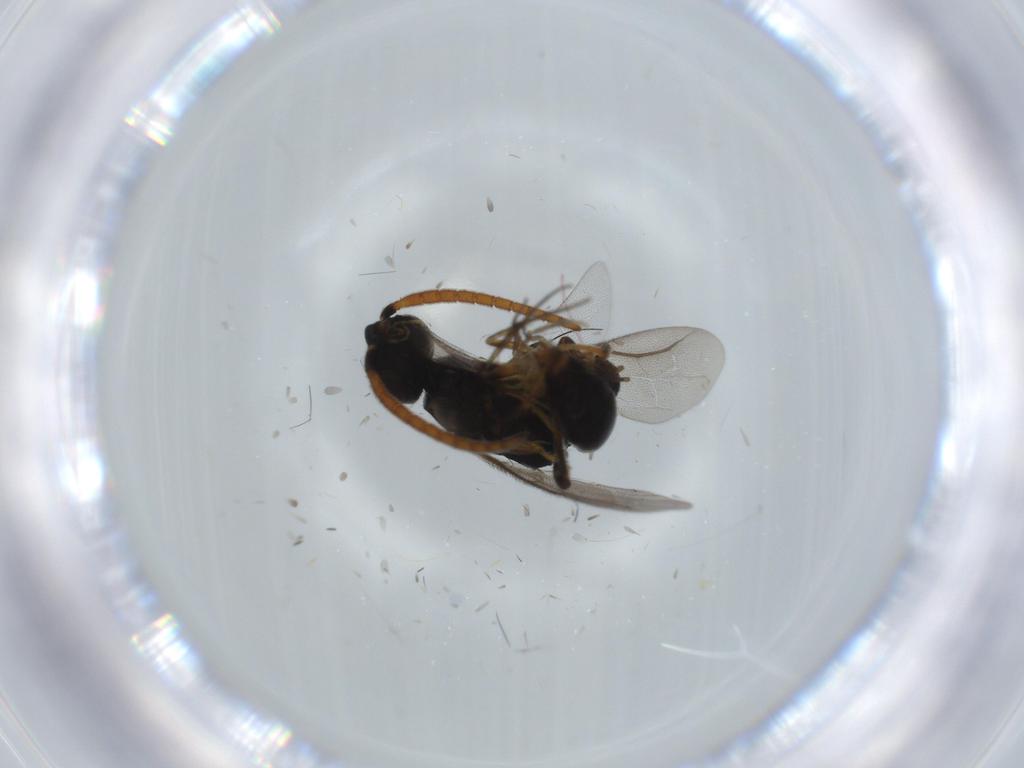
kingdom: Animalia
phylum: Arthropoda
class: Insecta
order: Hymenoptera
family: Bethylidae
